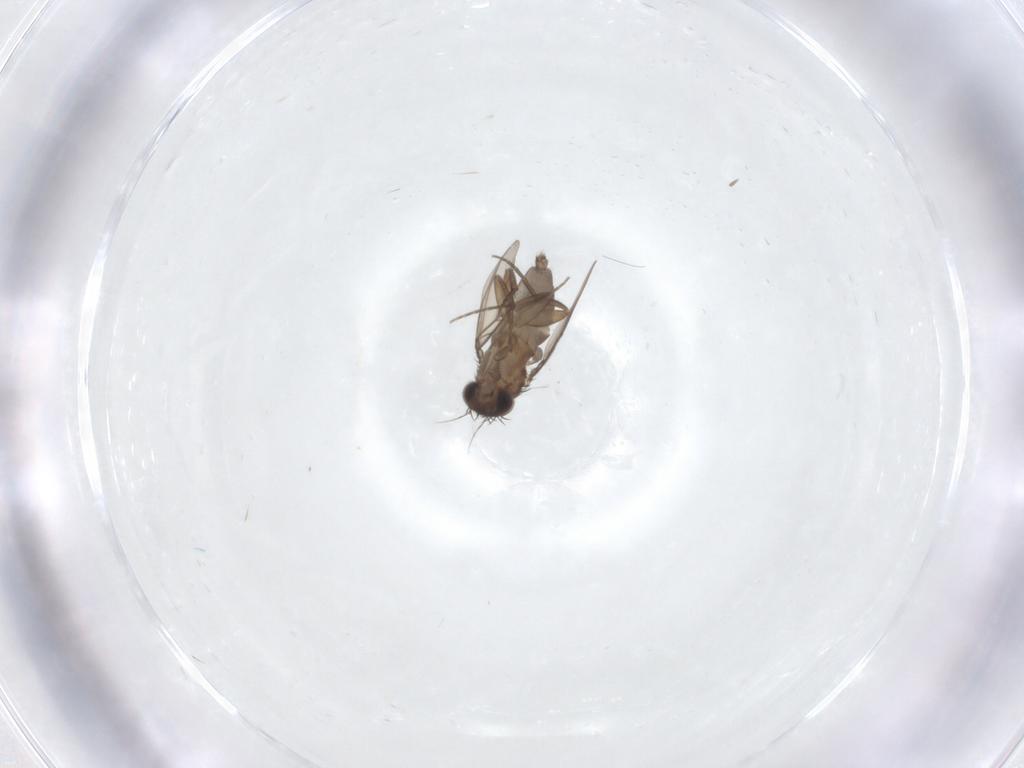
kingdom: Animalia
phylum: Arthropoda
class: Insecta
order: Diptera
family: Phoridae
